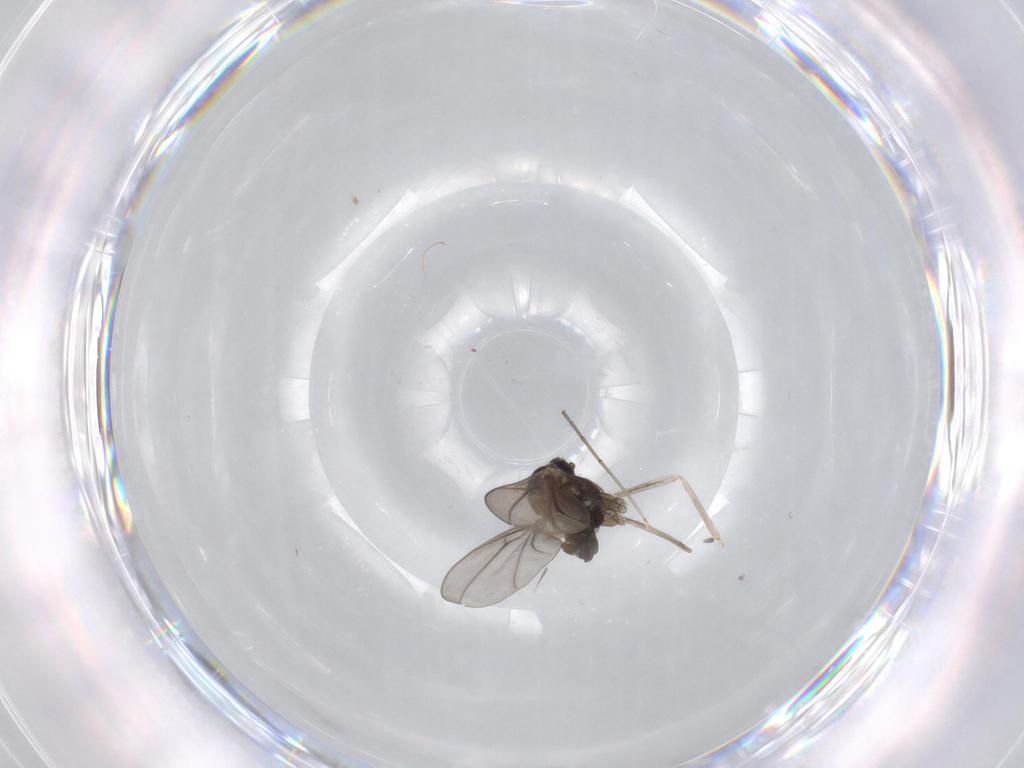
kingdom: Animalia
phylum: Arthropoda
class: Insecta
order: Diptera
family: Cecidomyiidae
